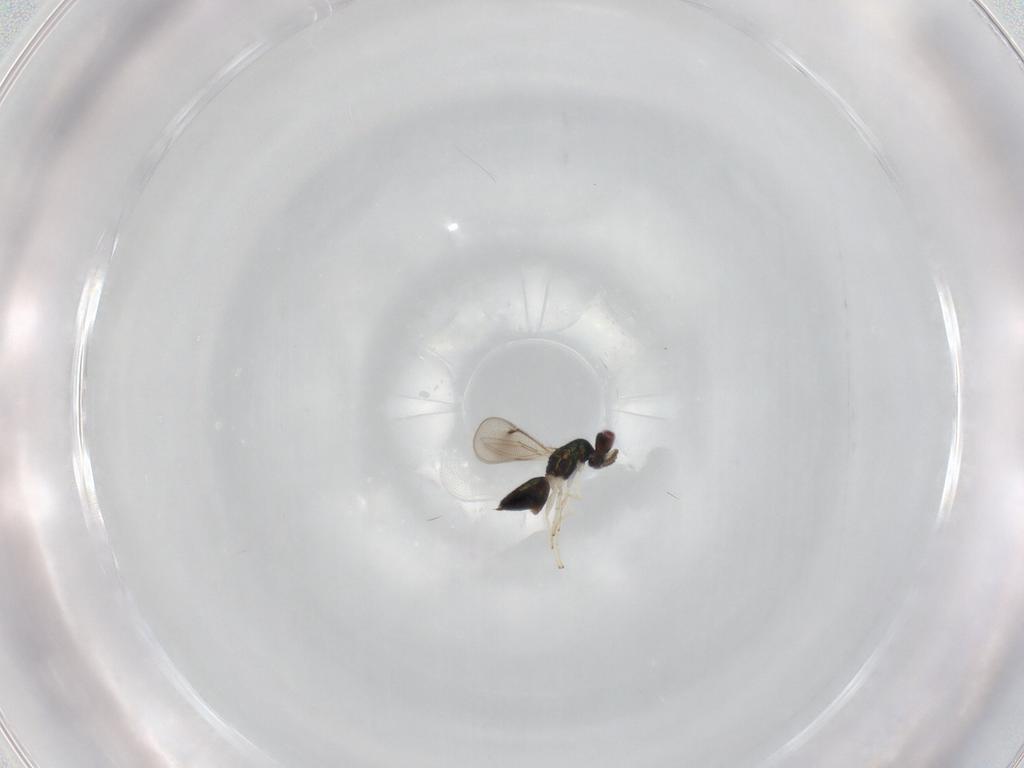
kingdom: Animalia
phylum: Arthropoda
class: Insecta
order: Hymenoptera
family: Eulophidae
